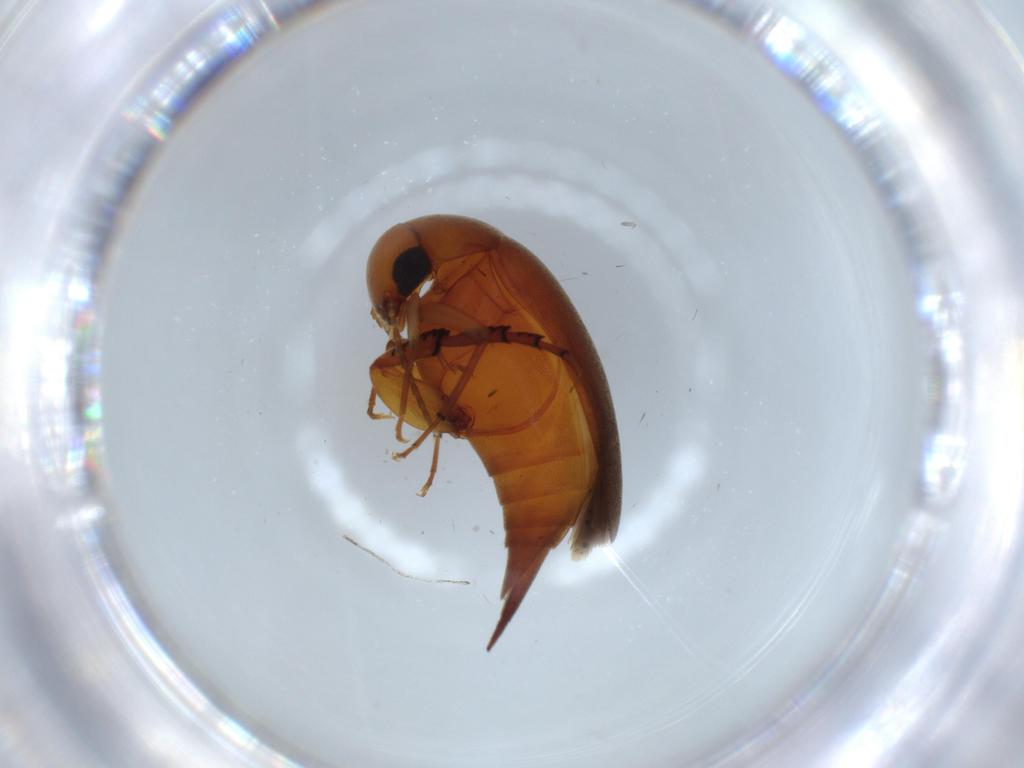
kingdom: Animalia
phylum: Arthropoda
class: Insecta
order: Coleoptera
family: Mordellidae
